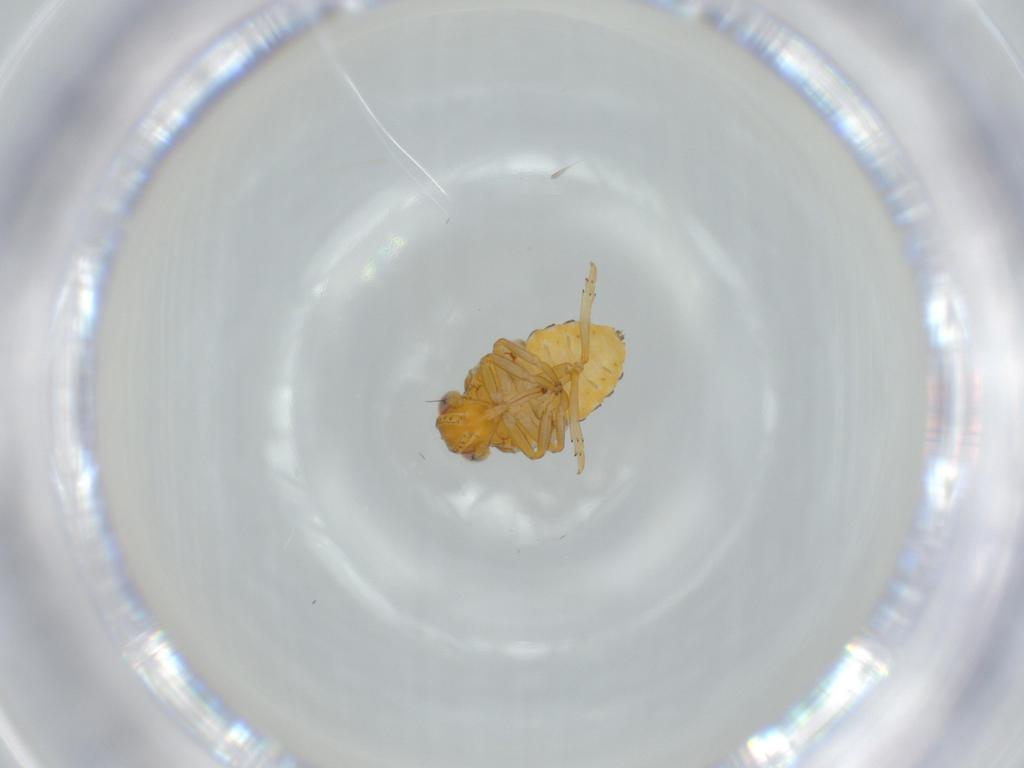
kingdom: Animalia
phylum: Arthropoda
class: Insecta
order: Hemiptera
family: Issidae
